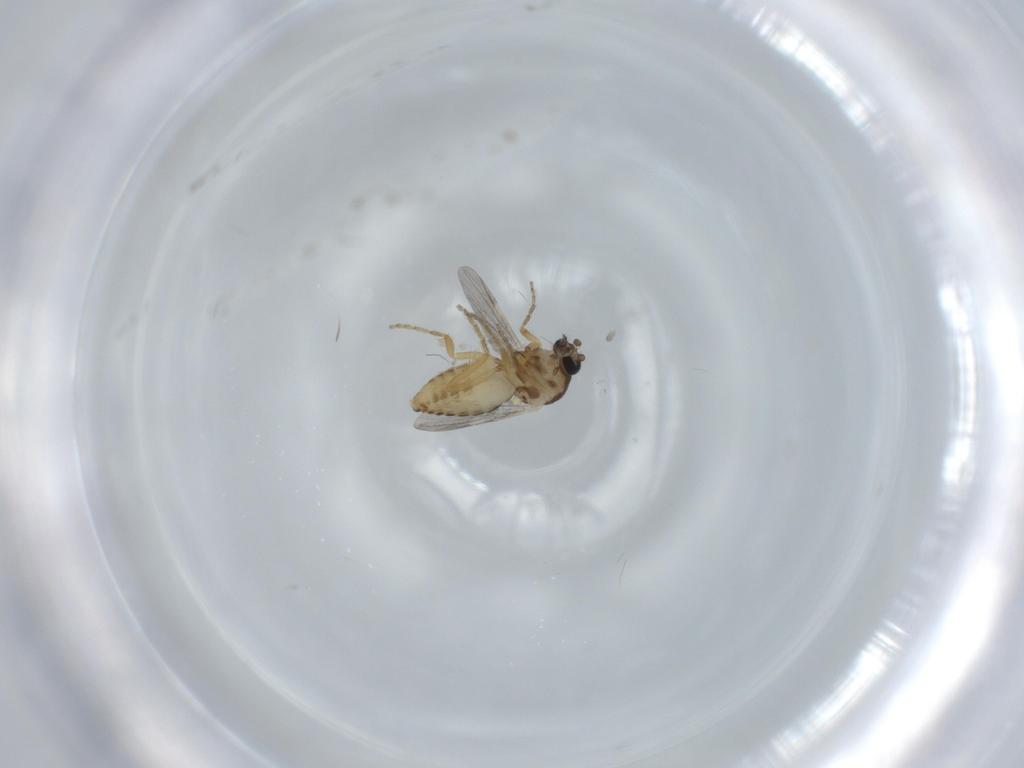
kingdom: Animalia
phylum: Arthropoda
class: Insecta
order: Diptera
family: Ceratopogonidae
